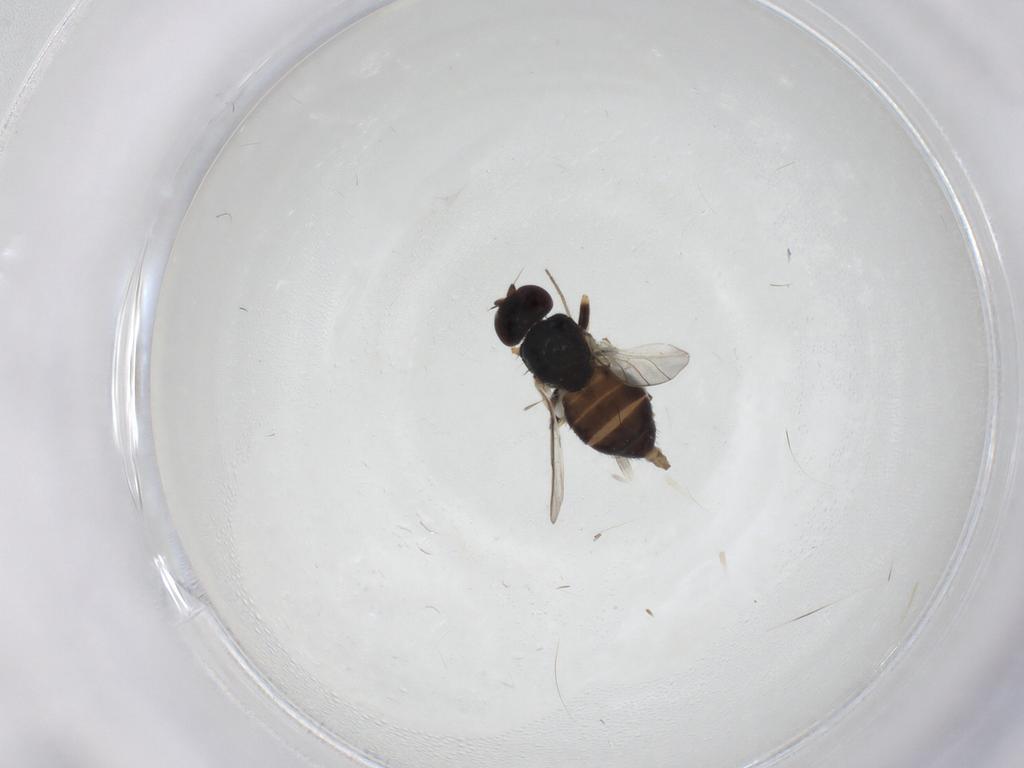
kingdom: Animalia
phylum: Arthropoda
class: Insecta
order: Diptera
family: Chloropidae
